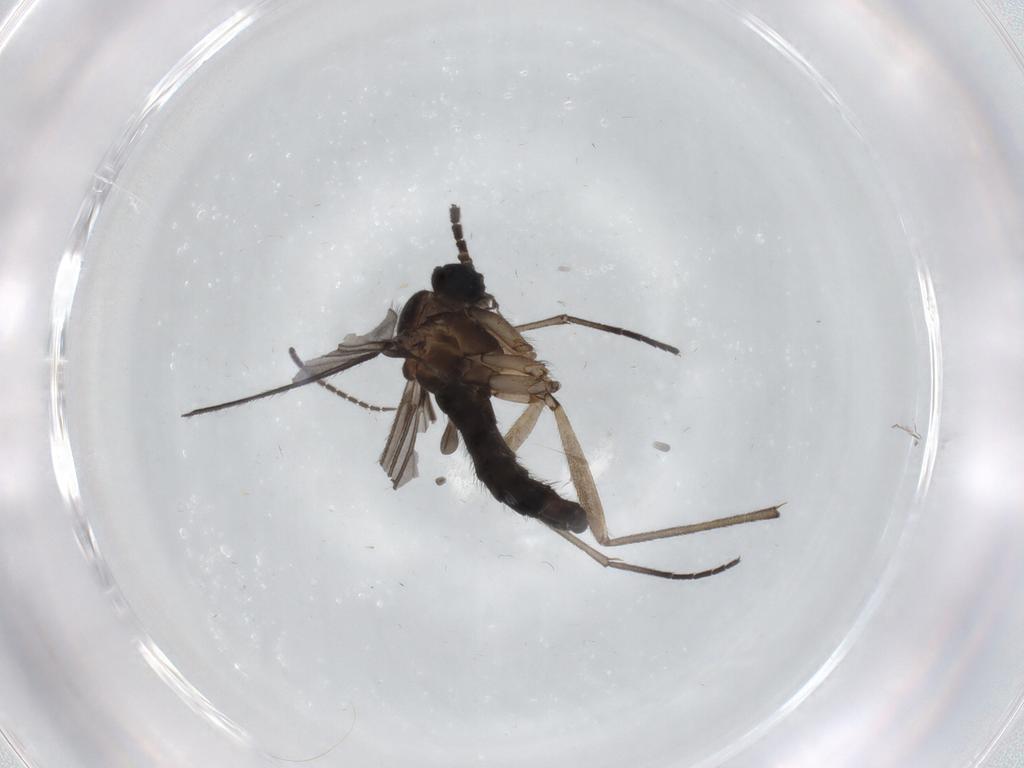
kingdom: Animalia
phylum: Arthropoda
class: Insecta
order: Diptera
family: Sciaridae
